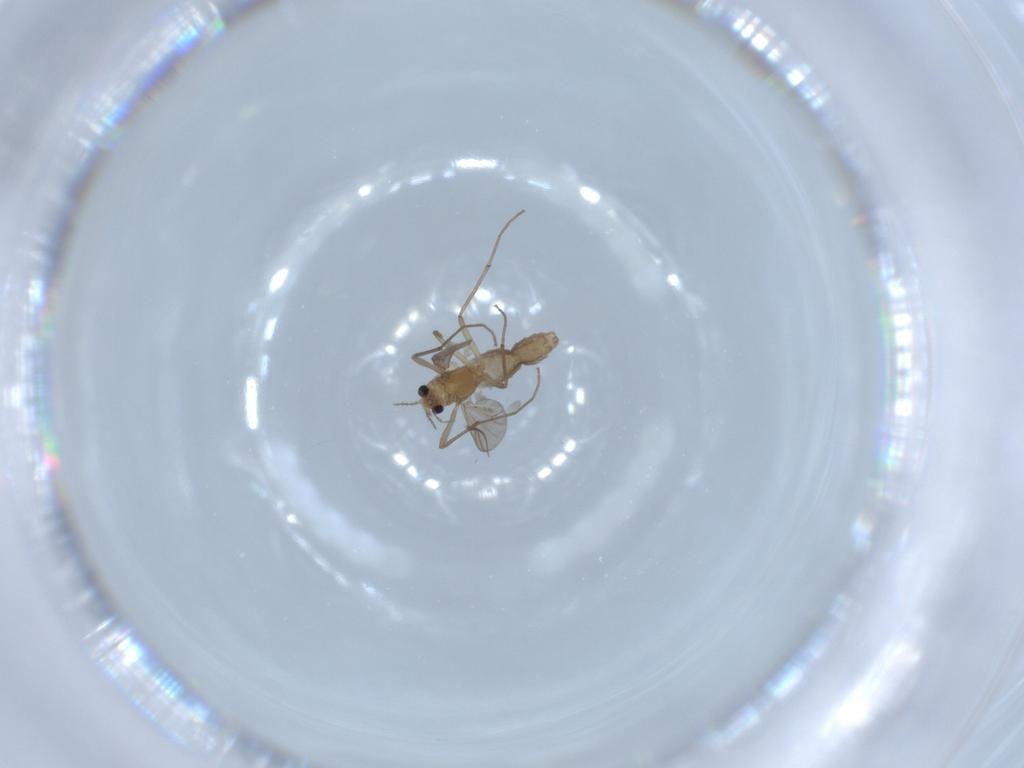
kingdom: Animalia
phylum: Arthropoda
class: Insecta
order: Diptera
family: Chironomidae
